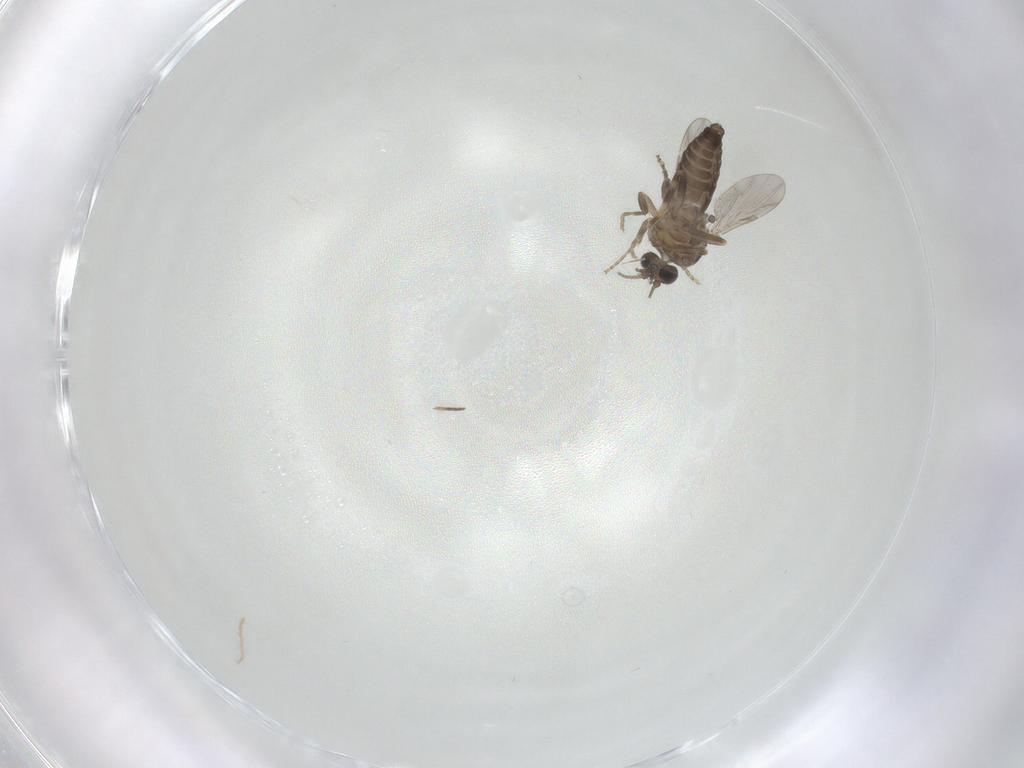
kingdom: Animalia
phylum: Arthropoda
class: Insecta
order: Diptera
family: Ceratopogonidae
